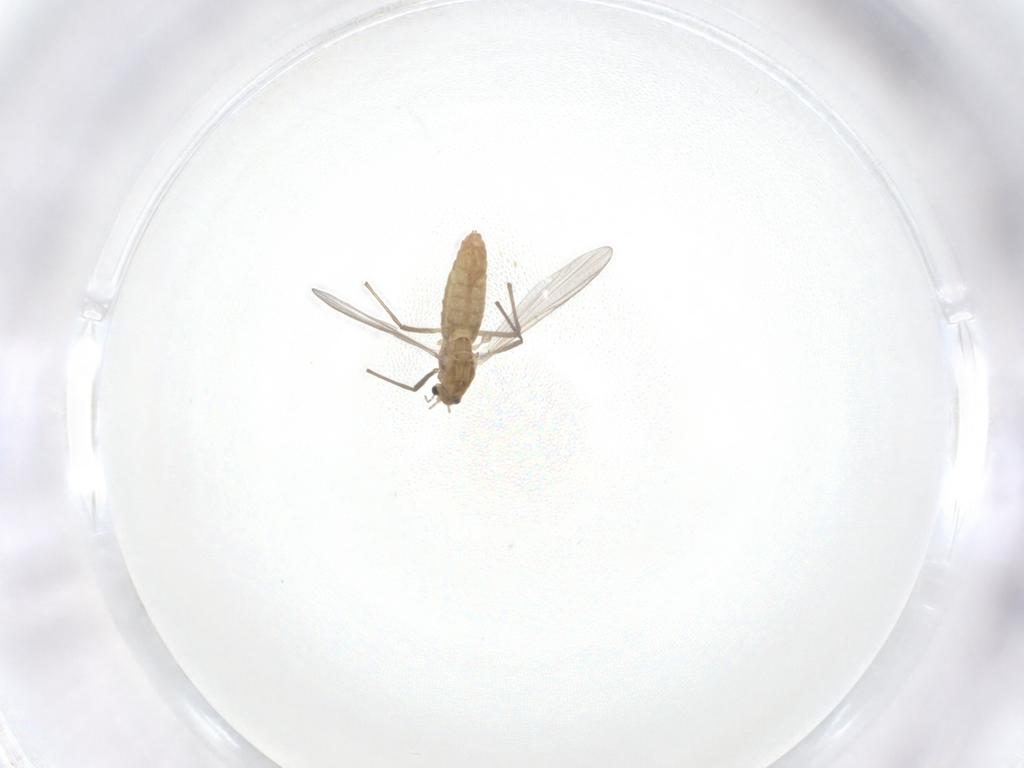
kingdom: Animalia
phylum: Arthropoda
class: Insecta
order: Diptera
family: Chironomidae
